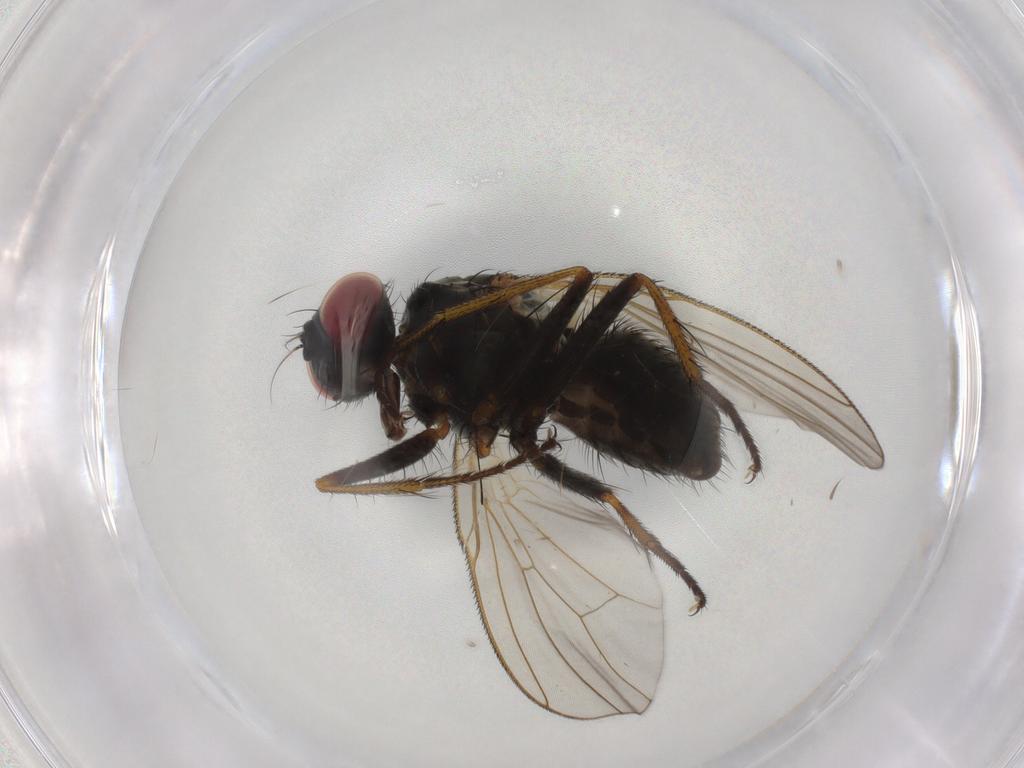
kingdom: Animalia
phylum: Arthropoda
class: Insecta
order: Diptera
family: Muscidae
